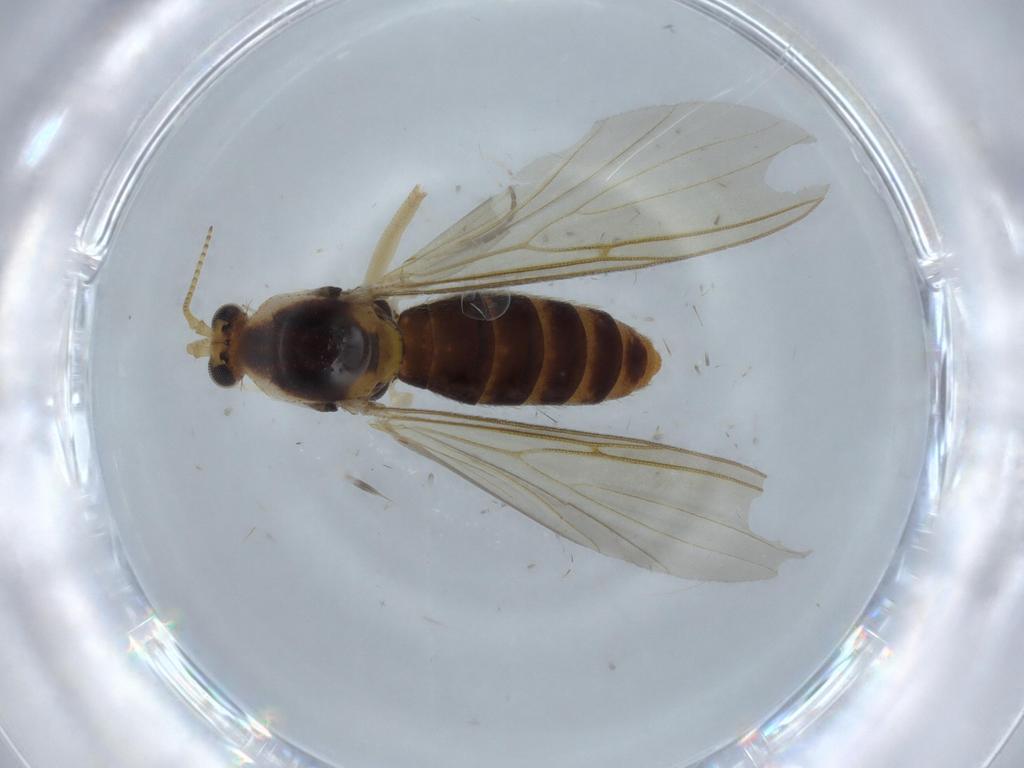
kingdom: Animalia
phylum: Arthropoda
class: Insecta
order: Diptera
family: Mycetophilidae
